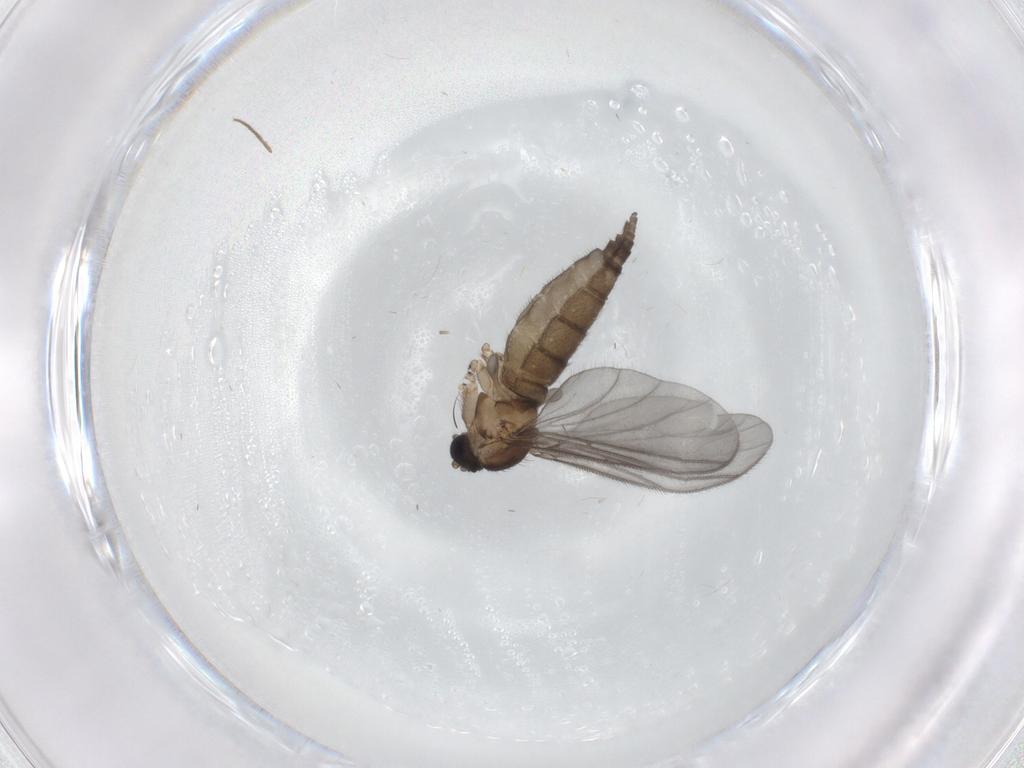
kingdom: Animalia
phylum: Arthropoda
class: Insecta
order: Diptera
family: Sciaridae
